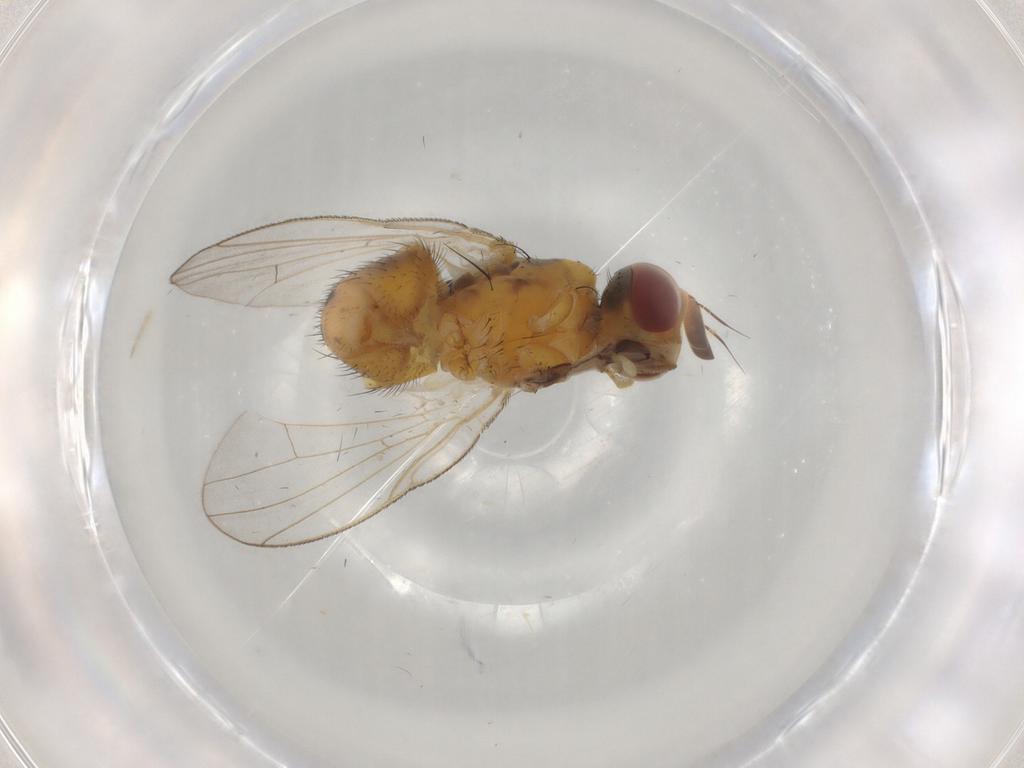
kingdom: Animalia
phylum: Arthropoda
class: Insecta
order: Diptera
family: Muscidae
